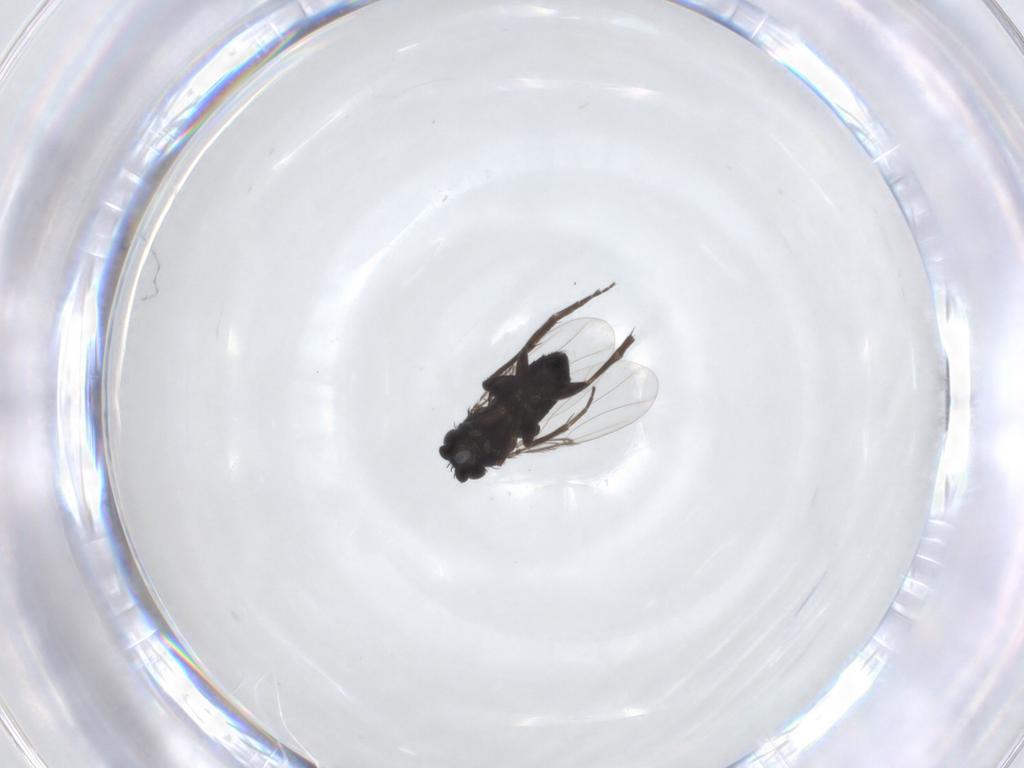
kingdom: Animalia
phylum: Arthropoda
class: Insecta
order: Diptera
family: Phoridae
